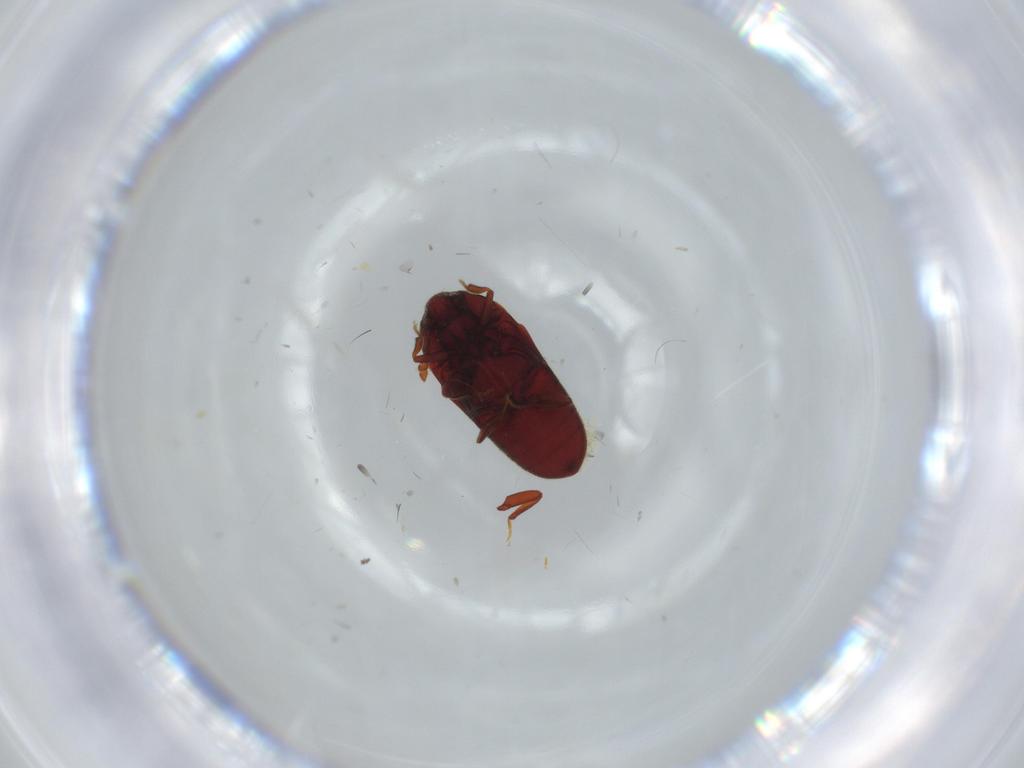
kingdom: Animalia
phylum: Arthropoda
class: Insecta
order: Coleoptera
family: Throscidae
